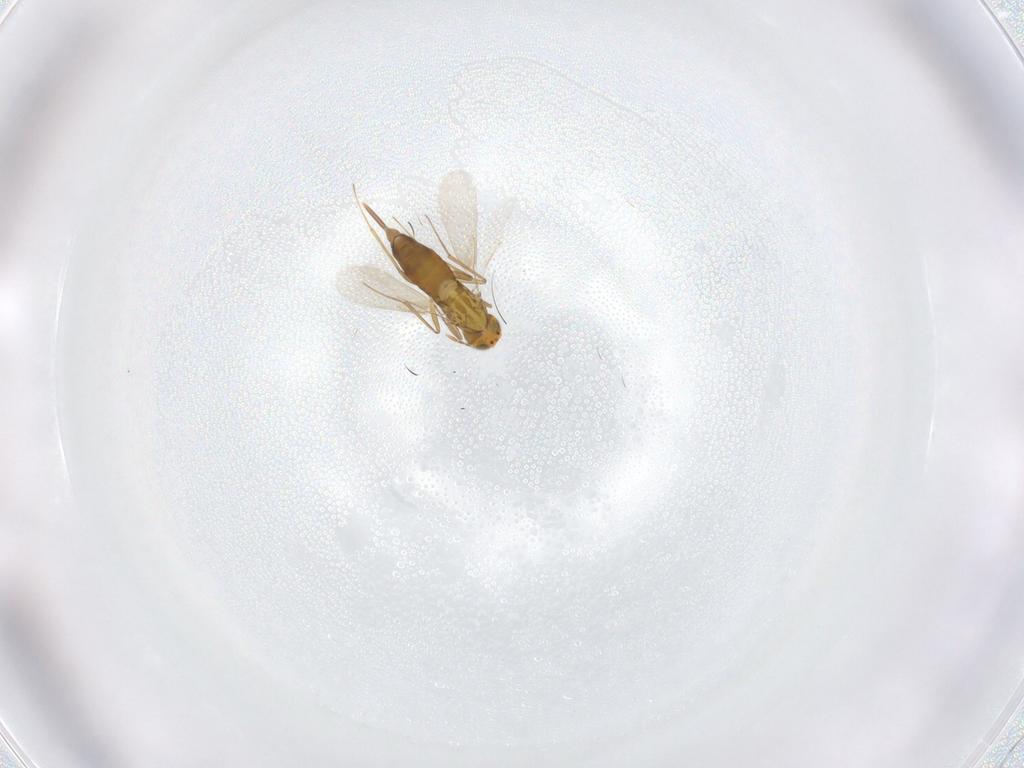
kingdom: Animalia
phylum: Arthropoda
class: Insecta
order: Hymenoptera
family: Aphelinidae
